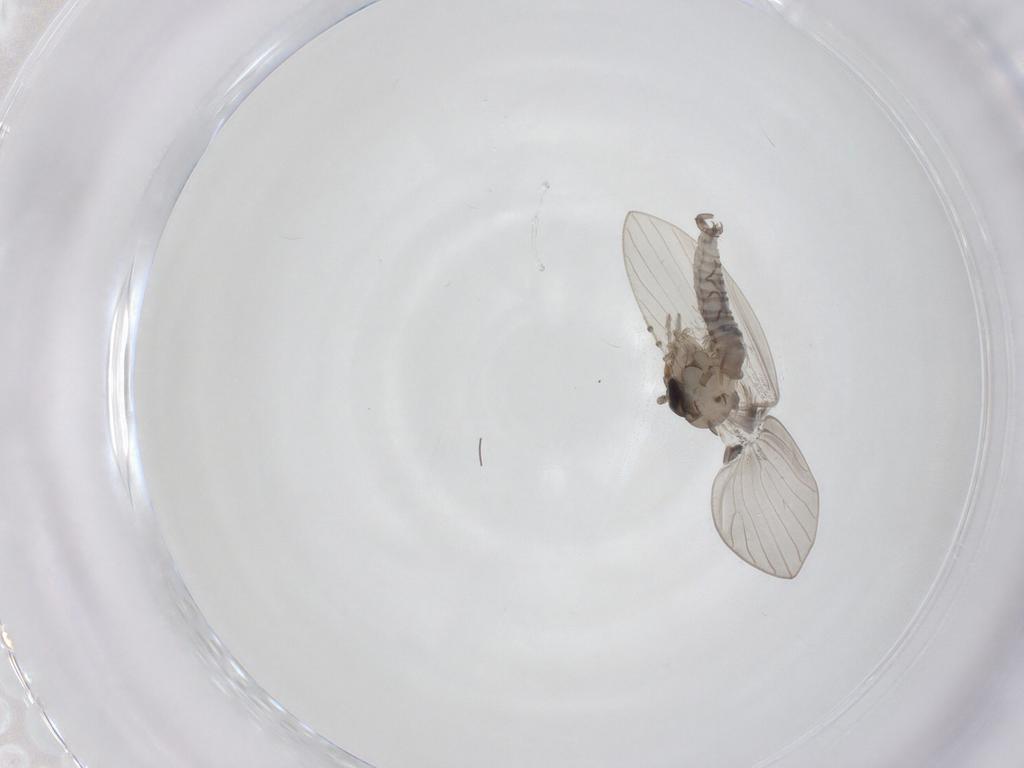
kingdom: Animalia
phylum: Arthropoda
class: Insecta
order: Diptera
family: Psychodidae
